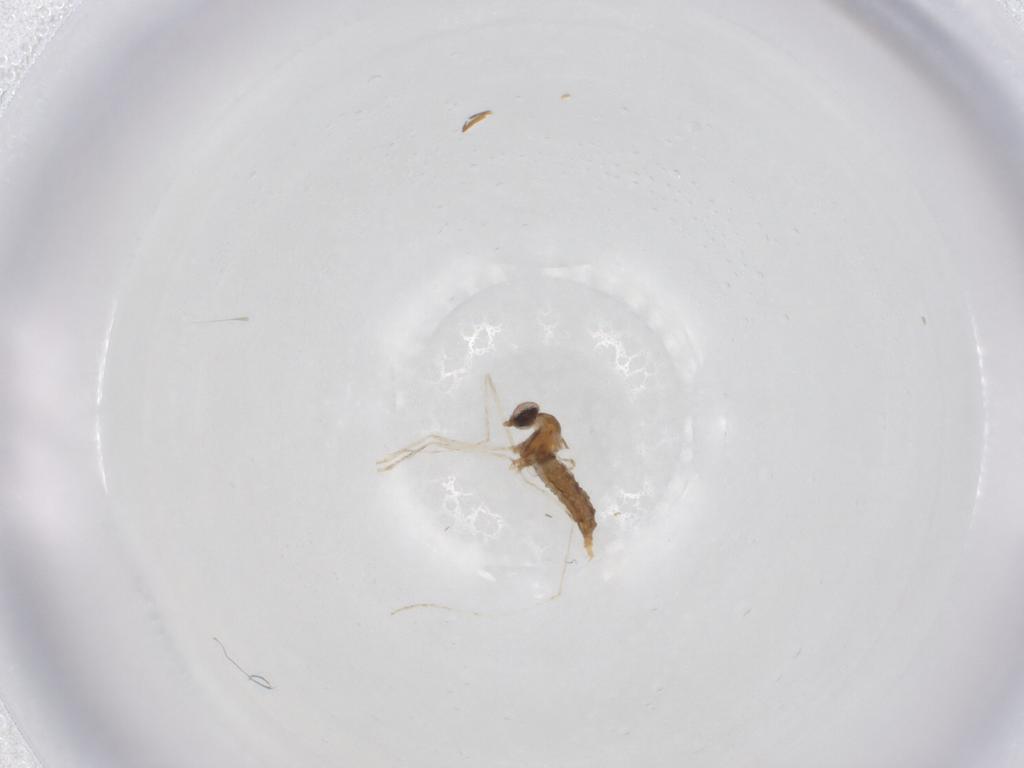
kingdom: Animalia
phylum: Arthropoda
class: Insecta
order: Diptera
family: Cecidomyiidae
